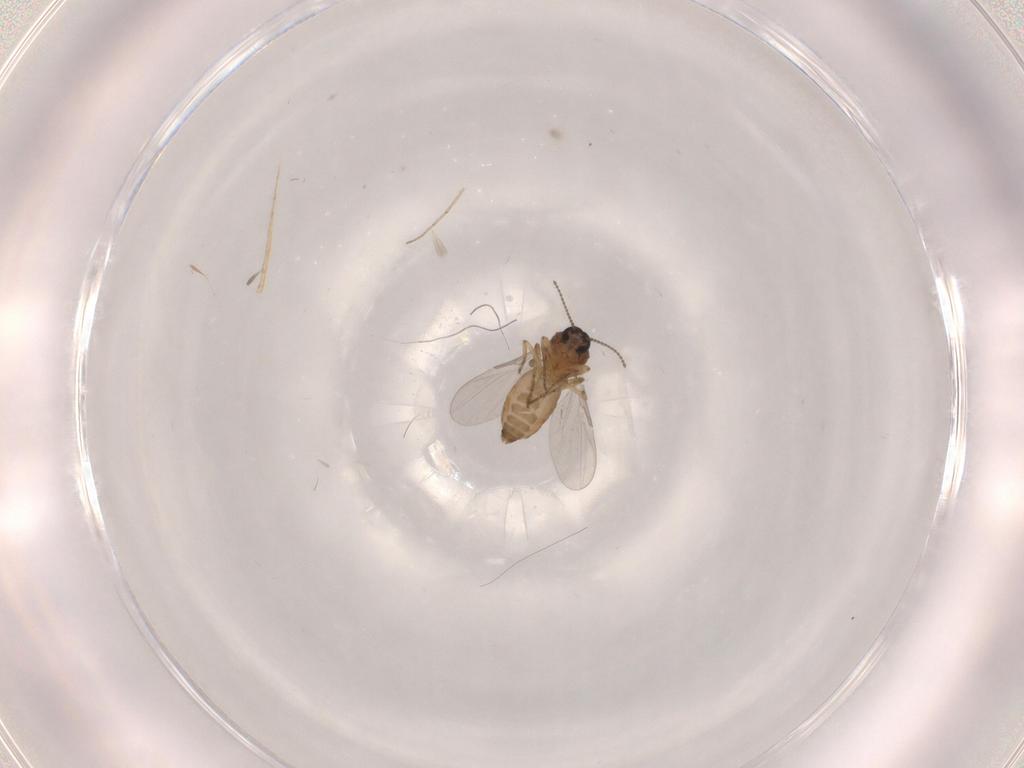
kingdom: Animalia
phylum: Arthropoda
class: Insecta
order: Diptera
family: Ceratopogonidae
